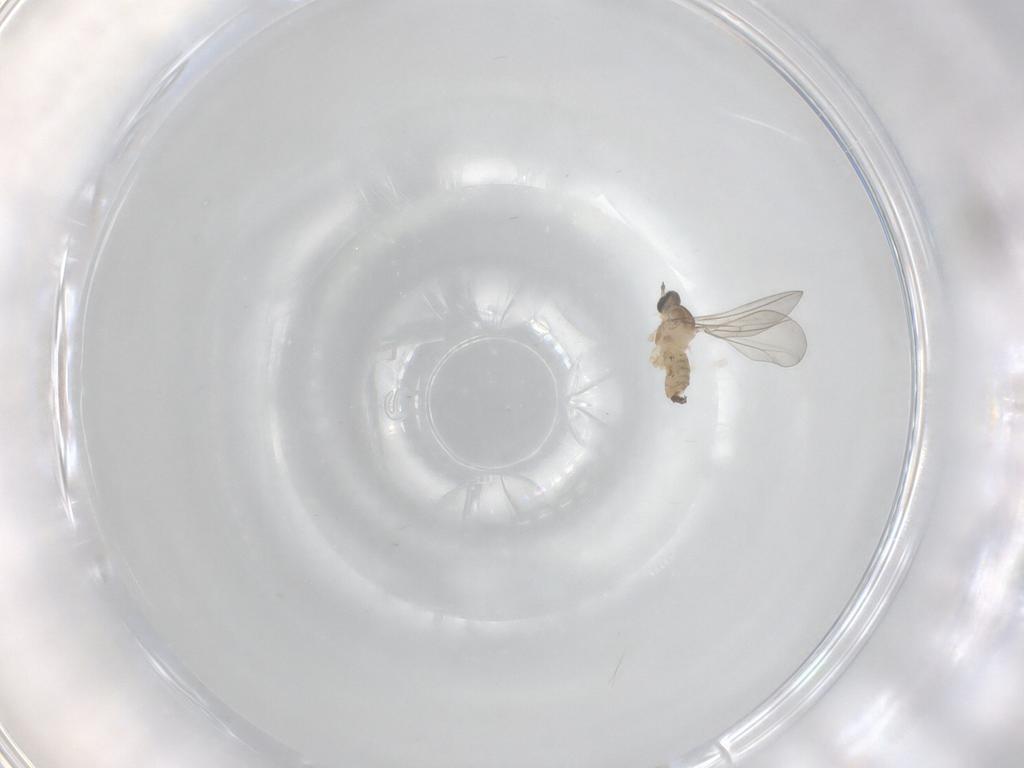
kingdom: Animalia
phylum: Arthropoda
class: Insecta
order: Diptera
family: Cecidomyiidae
